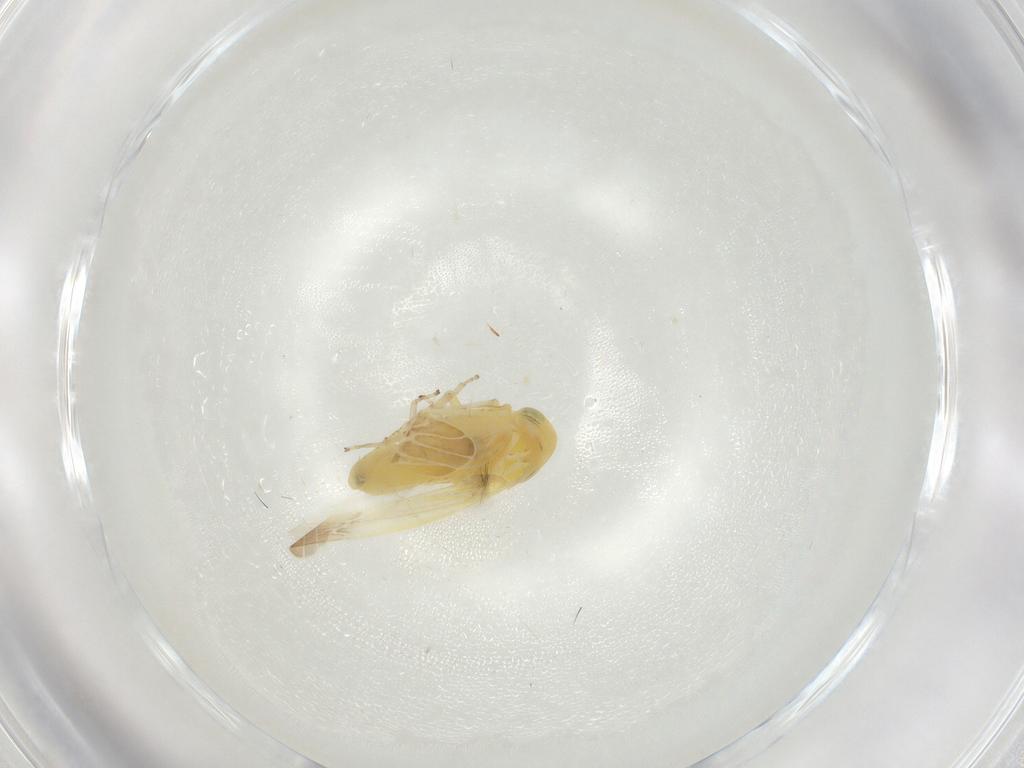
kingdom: Animalia
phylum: Arthropoda
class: Insecta
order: Hemiptera
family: Cicadellidae
